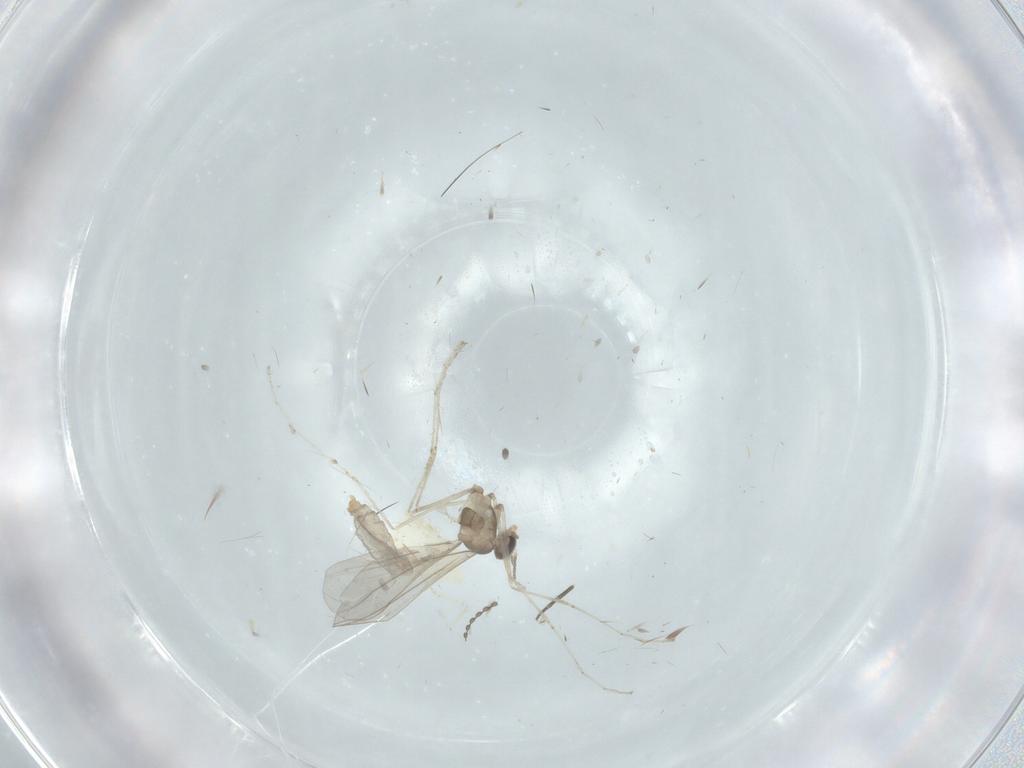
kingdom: Animalia
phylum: Arthropoda
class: Insecta
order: Diptera
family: Cecidomyiidae
